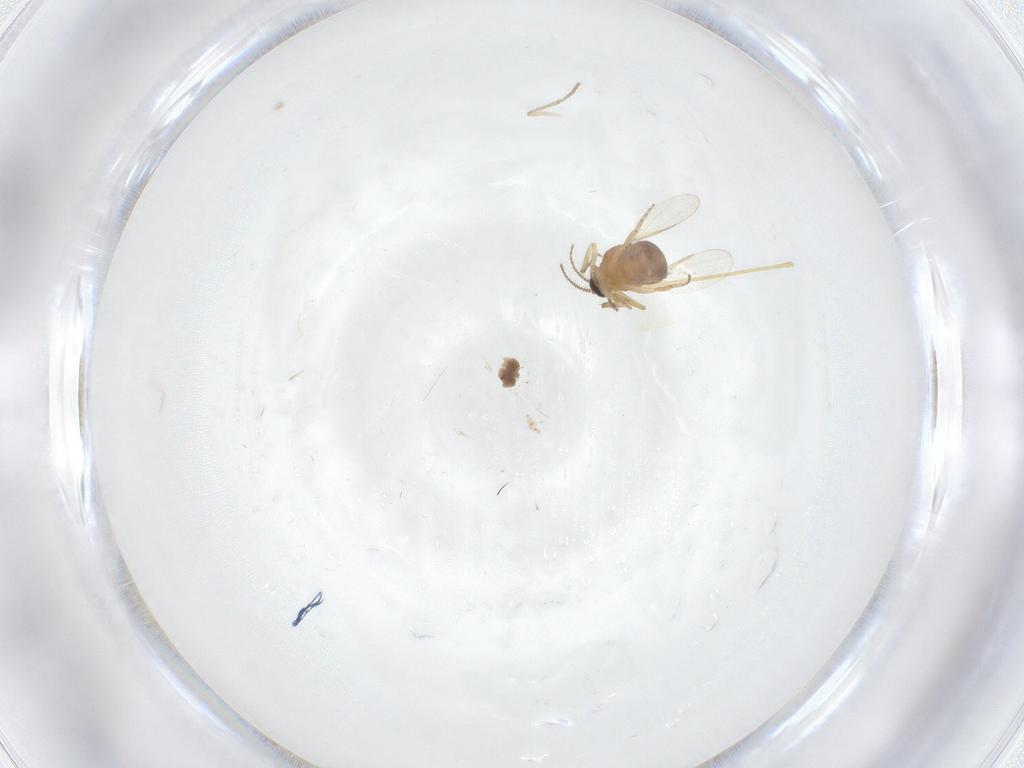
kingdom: Animalia
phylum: Arthropoda
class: Insecta
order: Diptera
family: Ceratopogonidae
